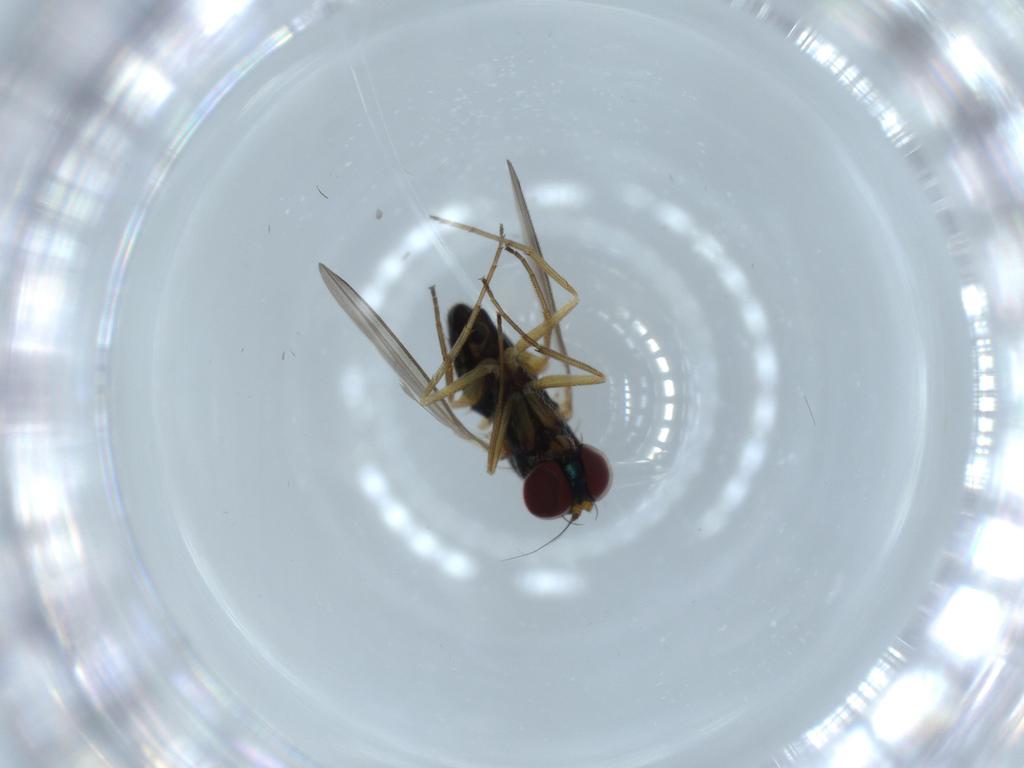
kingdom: Animalia
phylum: Arthropoda
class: Insecta
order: Diptera
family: Dolichopodidae
